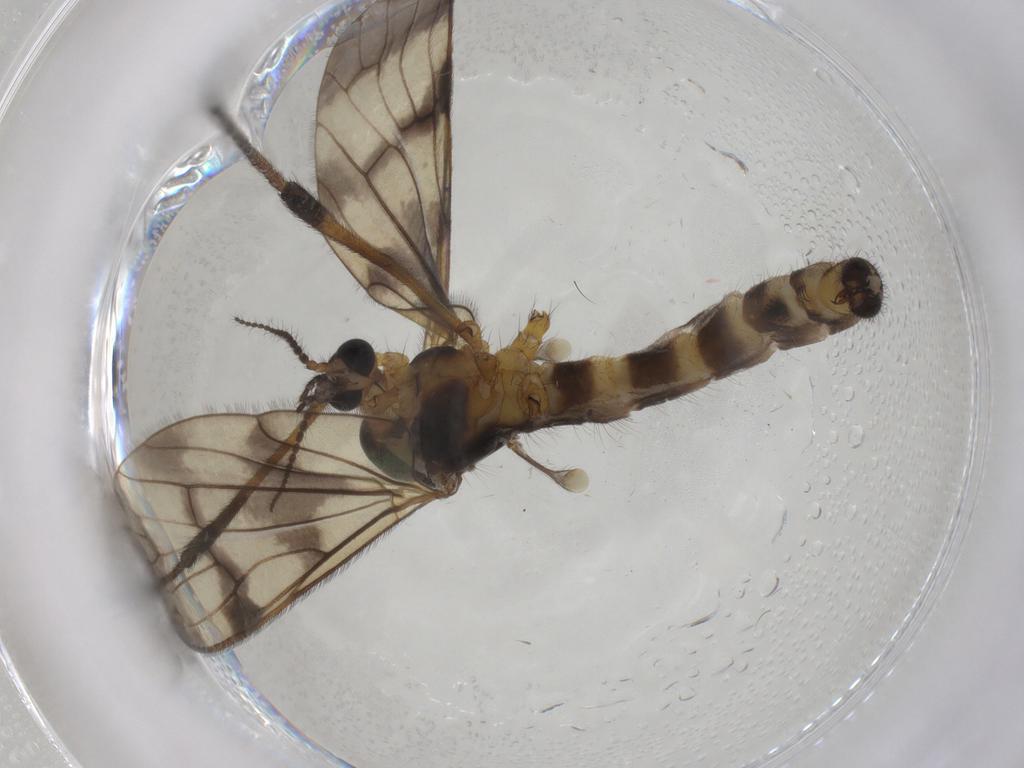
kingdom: Animalia
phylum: Arthropoda
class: Insecta
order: Diptera
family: Limoniidae
